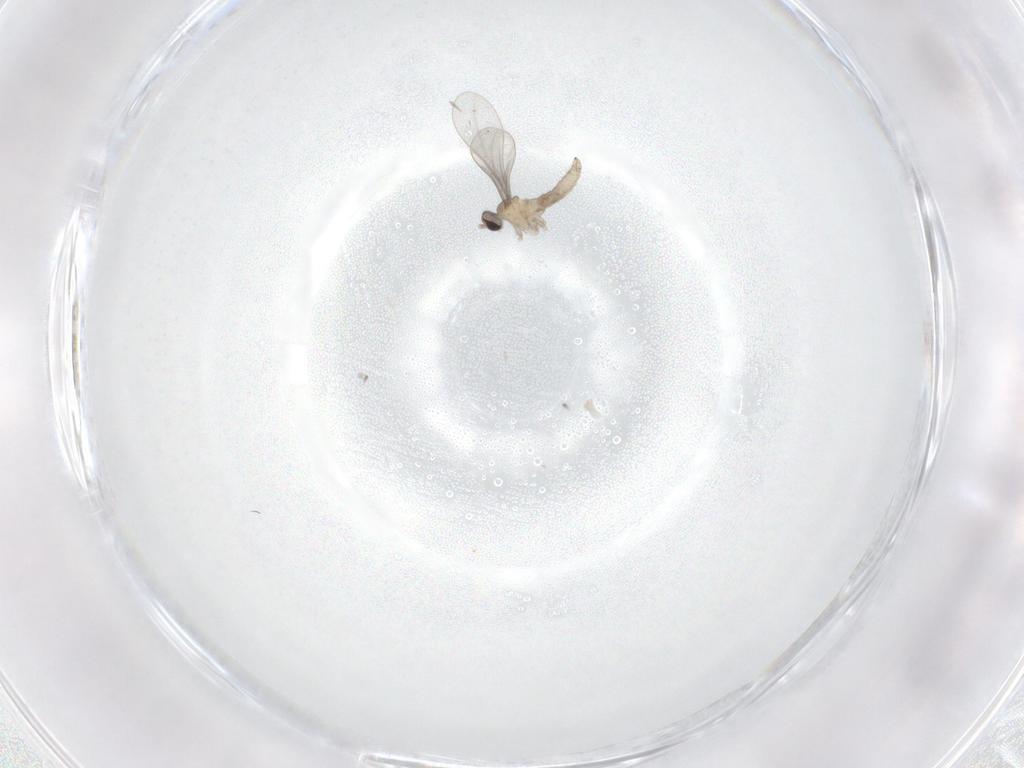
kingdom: Animalia
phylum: Arthropoda
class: Insecta
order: Diptera
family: Cecidomyiidae
